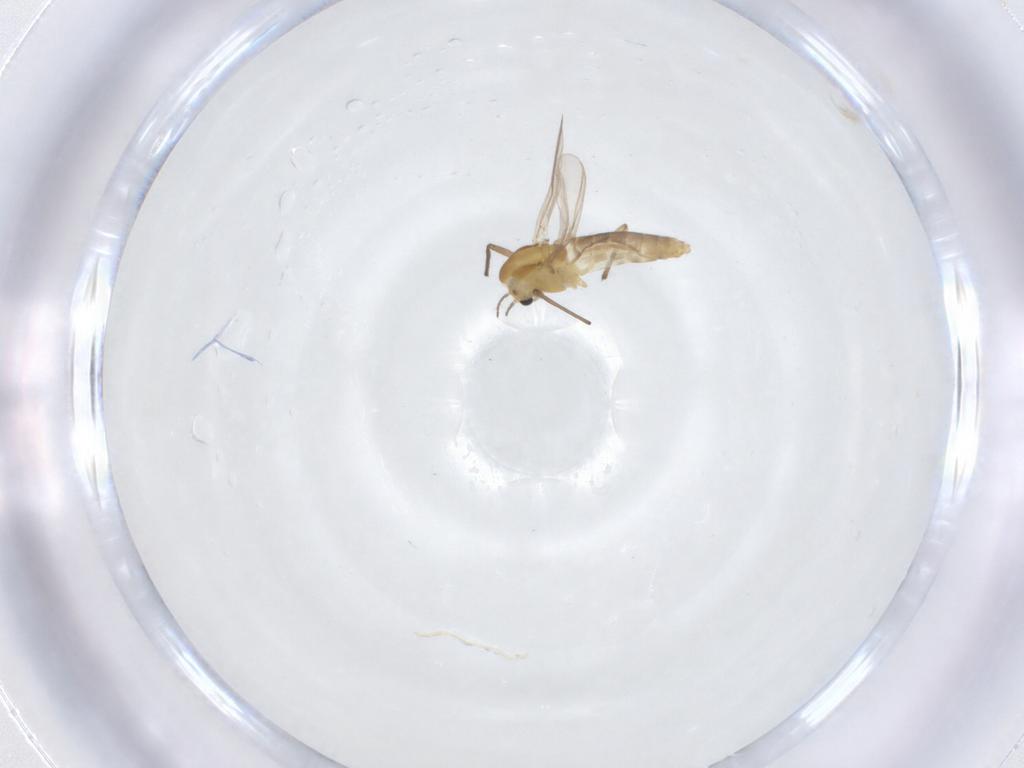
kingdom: Animalia
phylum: Arthropoda
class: Insecta
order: Diptera
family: Chironomidae
